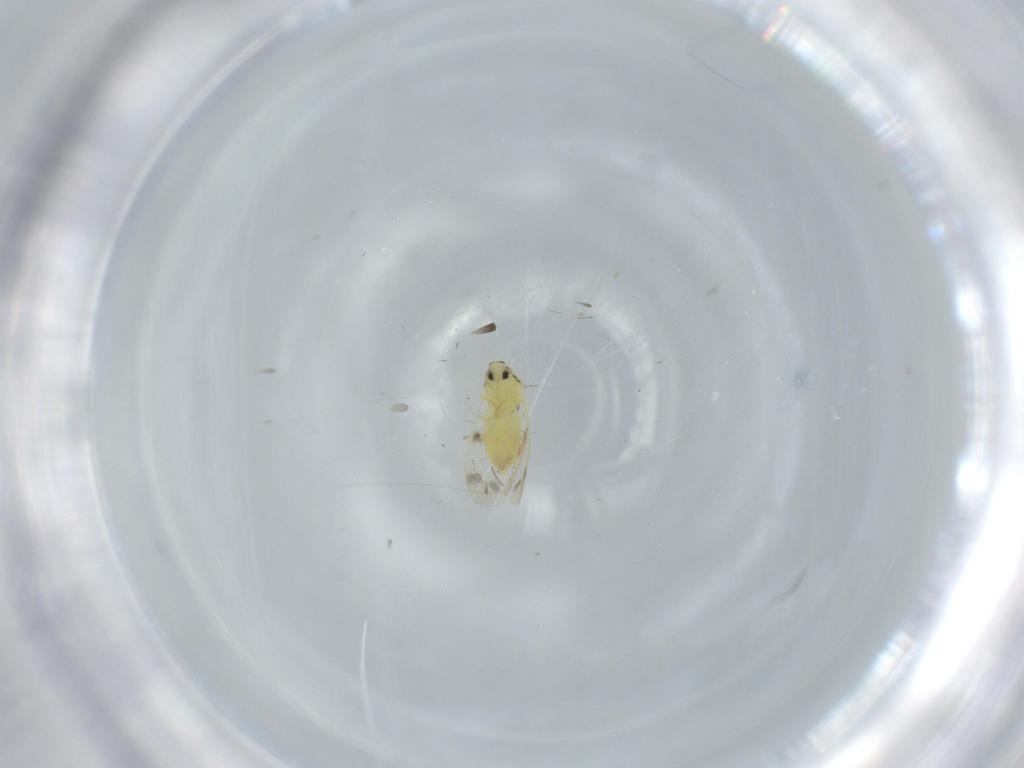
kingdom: Animalia
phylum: Arthropoda
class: Insecta
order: Hemiptera
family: Aleyrodidae
